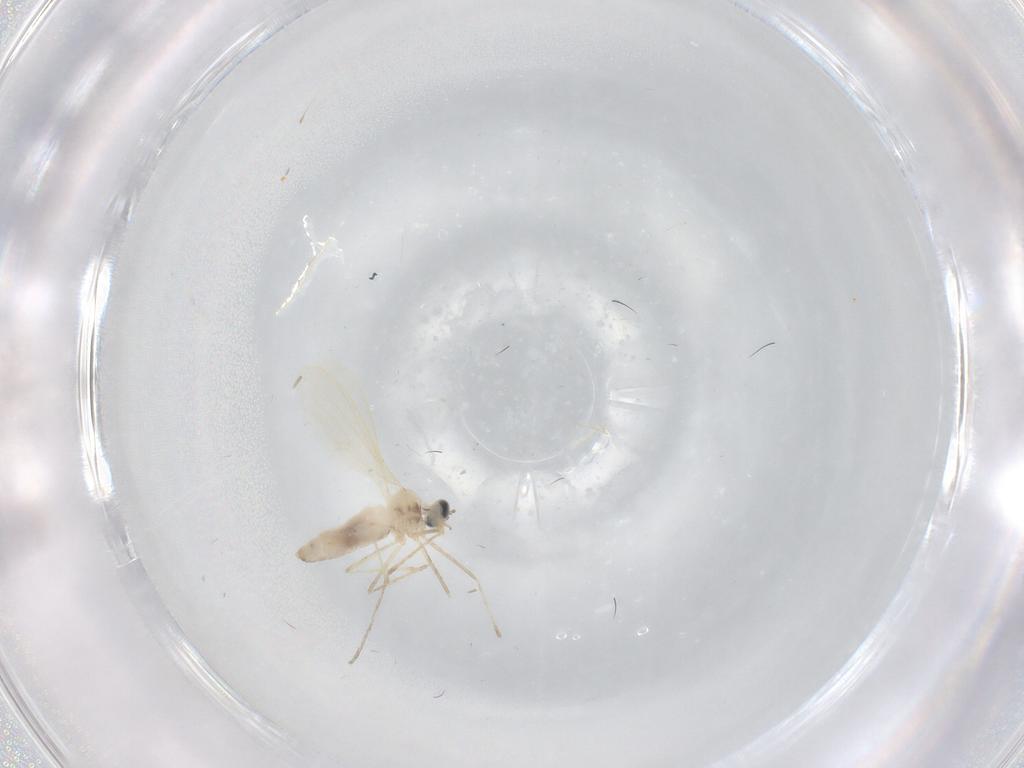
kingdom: Animalia
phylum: Arthropoda
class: Insecta
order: Diptera
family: Cecidomyiidae
